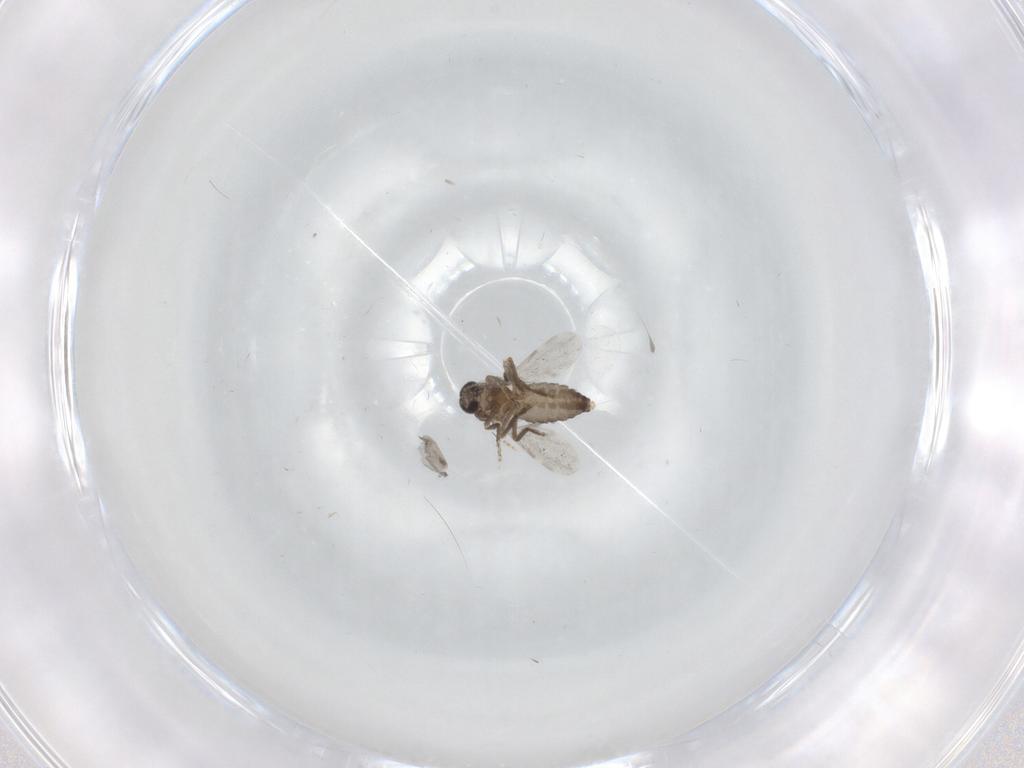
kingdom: Animalia
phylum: Arthropoda
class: Insecta
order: Diptera
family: Ceratopogonidae
